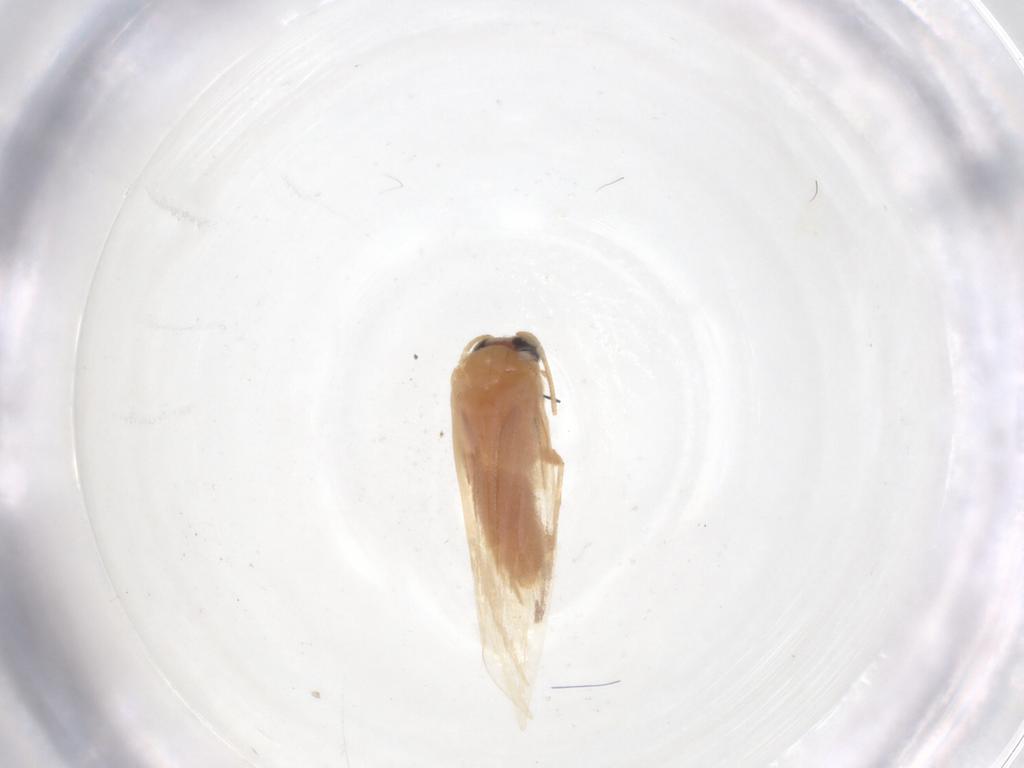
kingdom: Animalia
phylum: Arthropoda
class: Insecta
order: Lepidoptera
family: Nepticulidae
